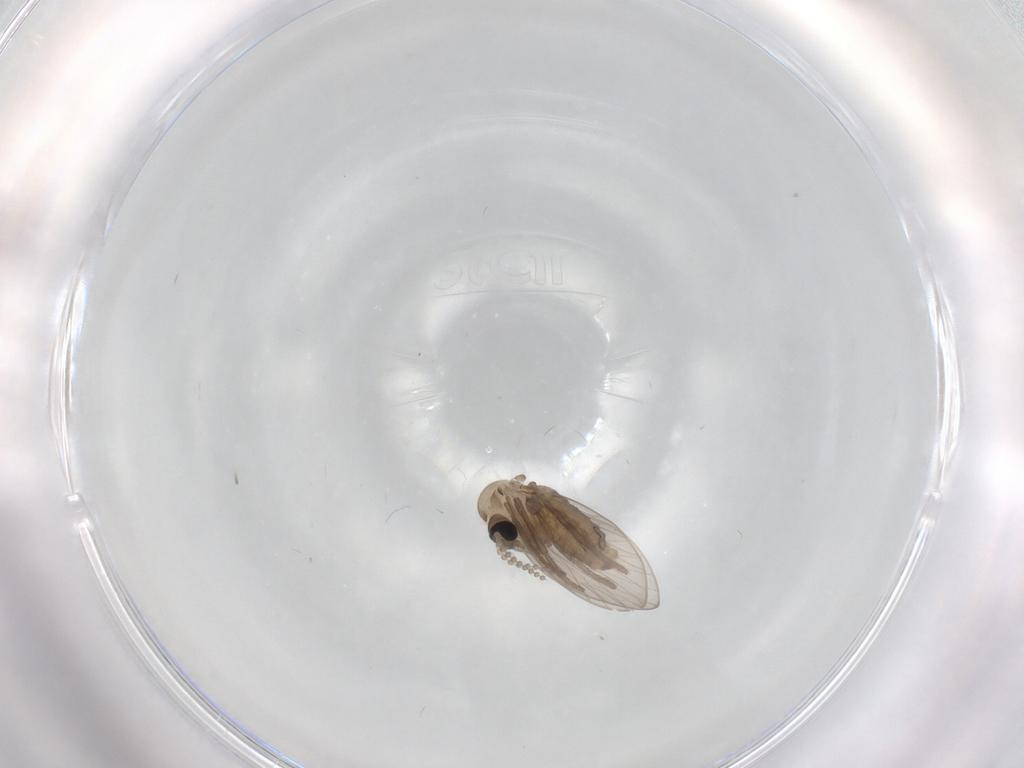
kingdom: Animalia
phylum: Arthropoda
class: Insecta
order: Diptera
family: Psychodidae
